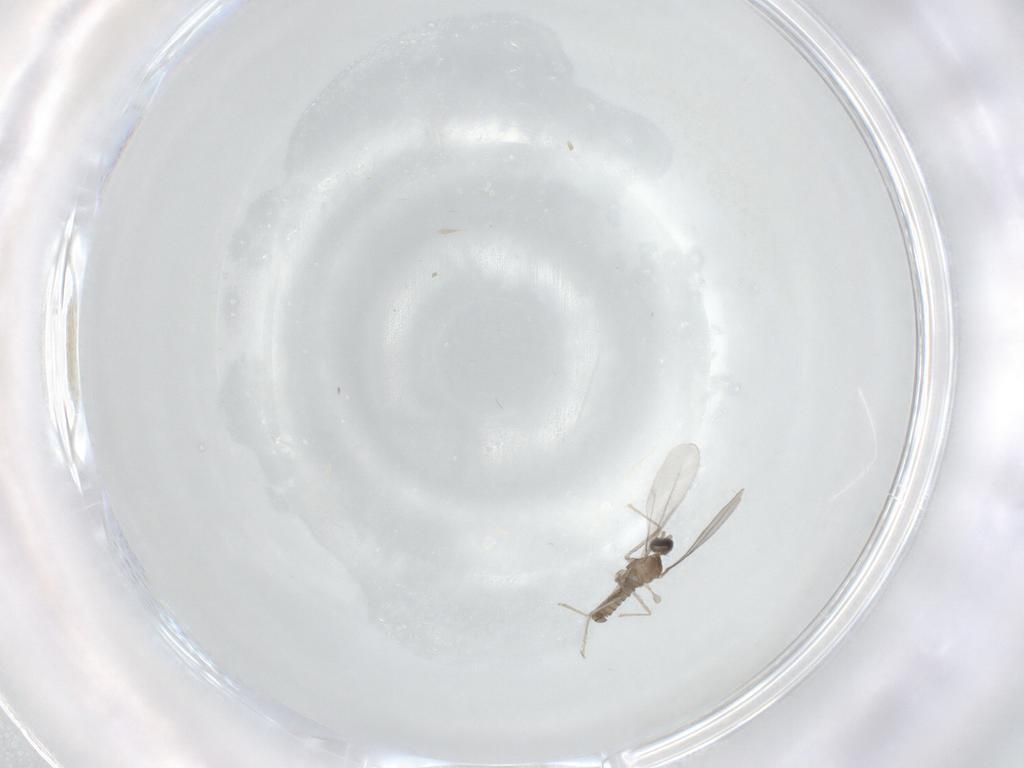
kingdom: Animalia
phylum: Arthropoda
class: Insecta
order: Diptera
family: Cecidomyiidae
